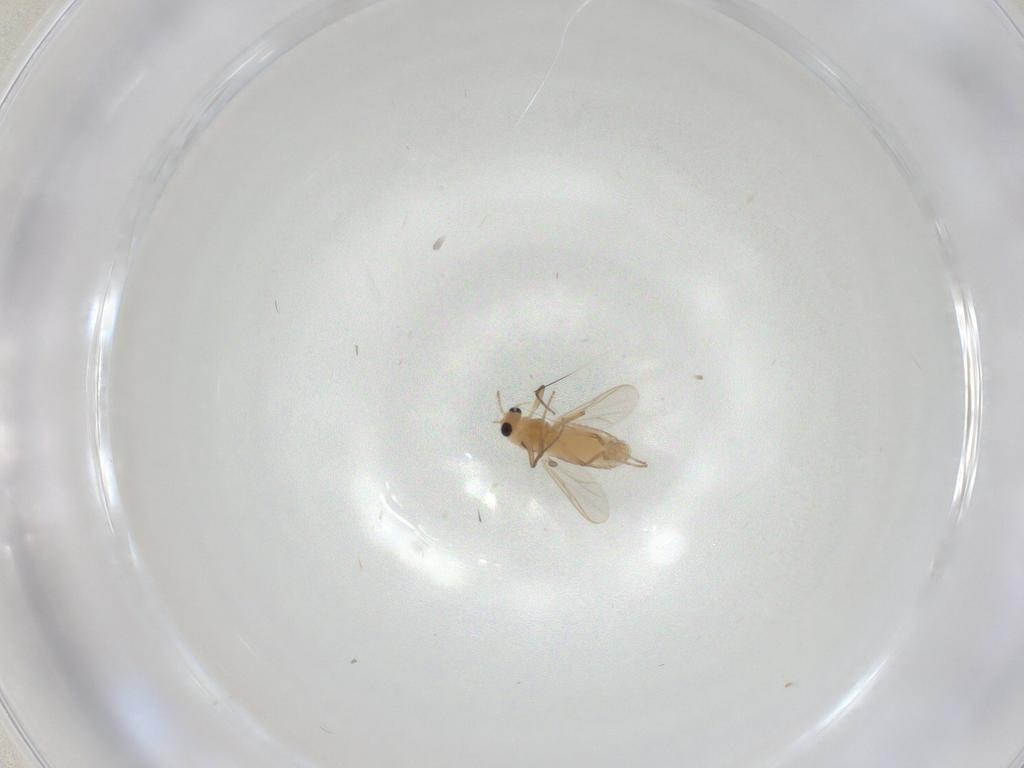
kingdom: Animalia
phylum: Arthropoda
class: Insecta
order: Diptera
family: Chironomidae
